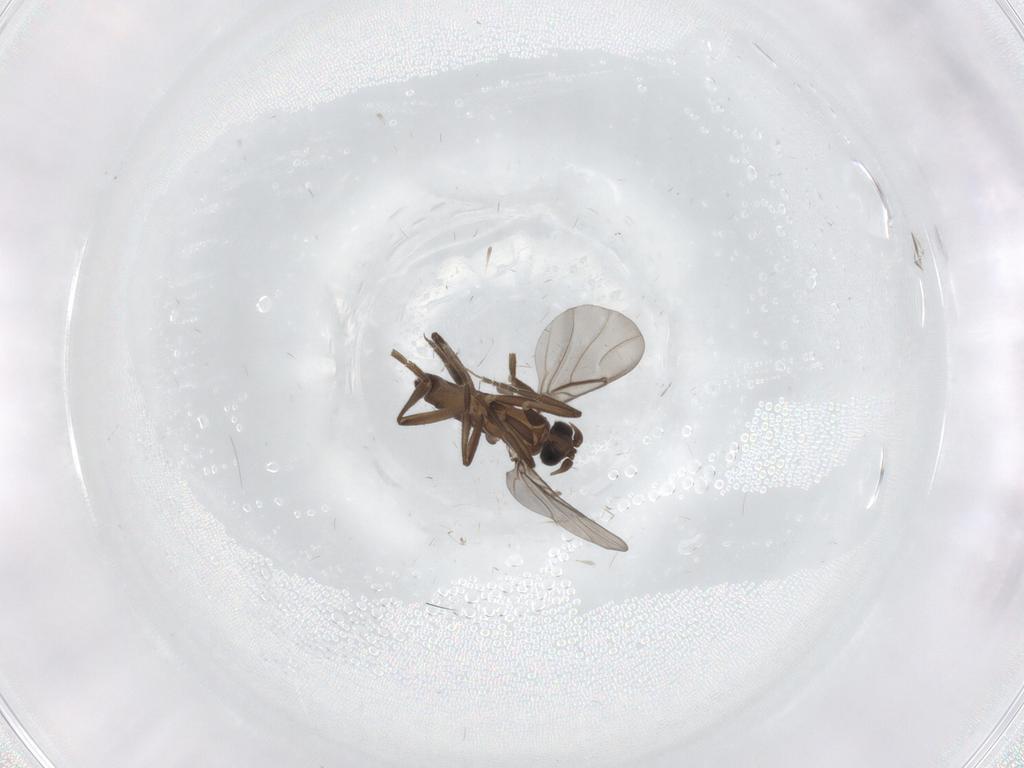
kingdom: Animalia
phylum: Arthropoda
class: Insecta
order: Diptera
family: Phoridae
